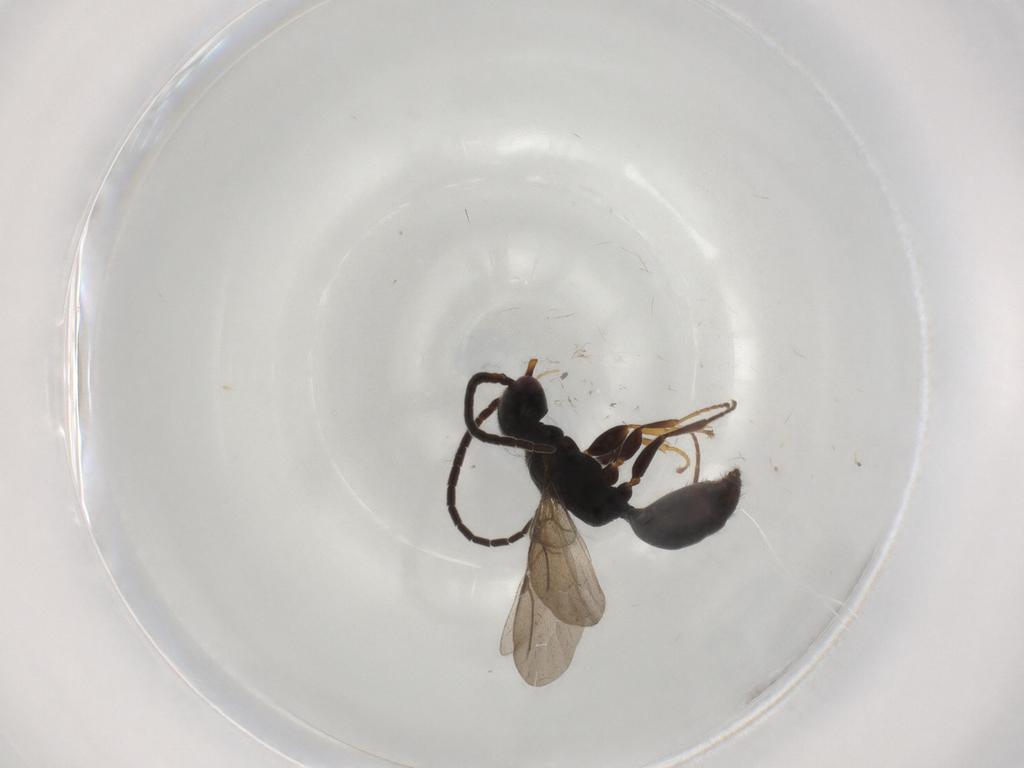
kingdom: Animalia
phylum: Arthropoda
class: Insecta
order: Hymenoptera
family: Bethylidae
